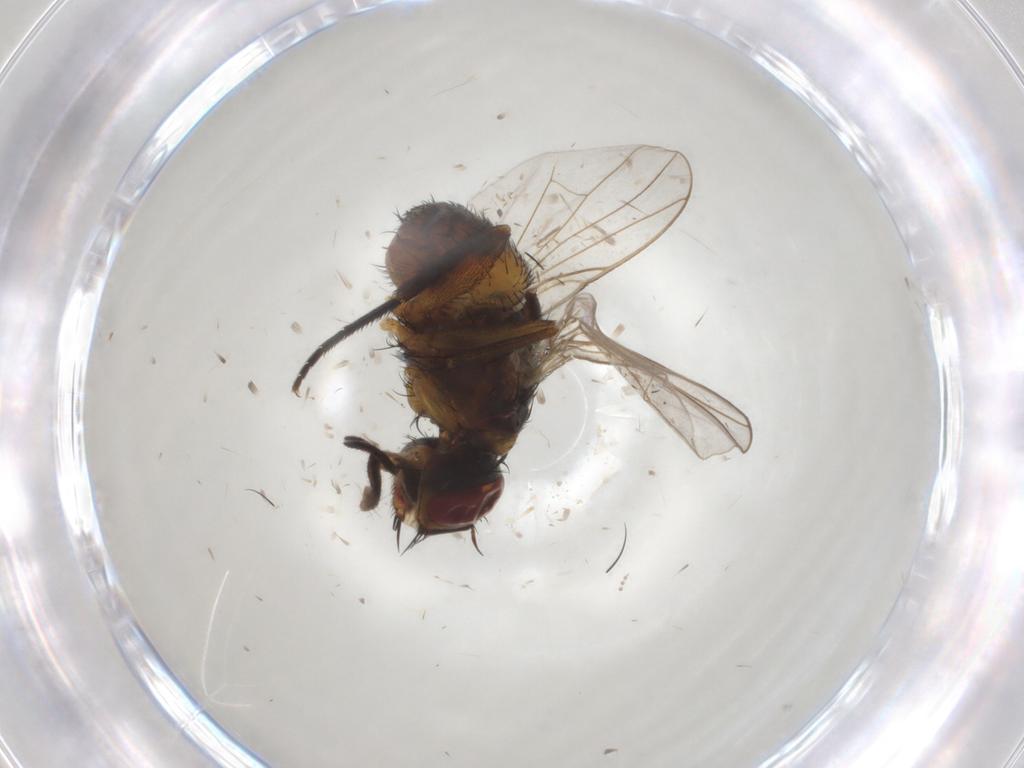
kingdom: Animalia
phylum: Arthropoda
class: Insecta
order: Diptera
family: Muscidae
